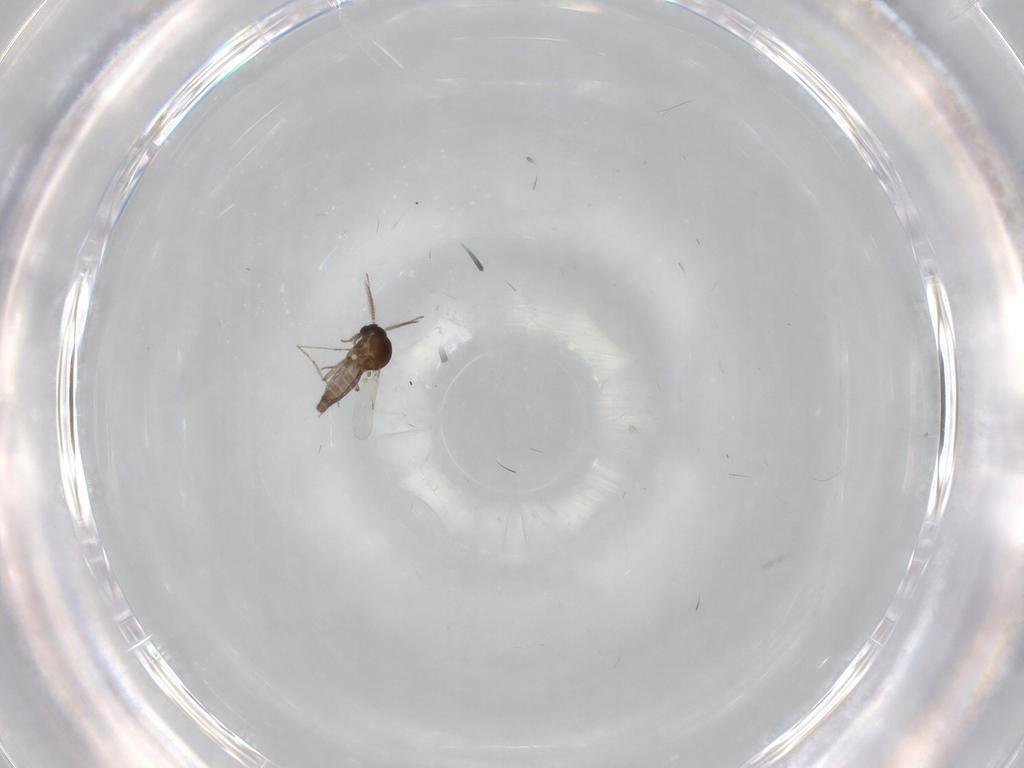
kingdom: Animalia
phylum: Arthropoda
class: Insecta
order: Diptera
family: Ceratopogonidae
